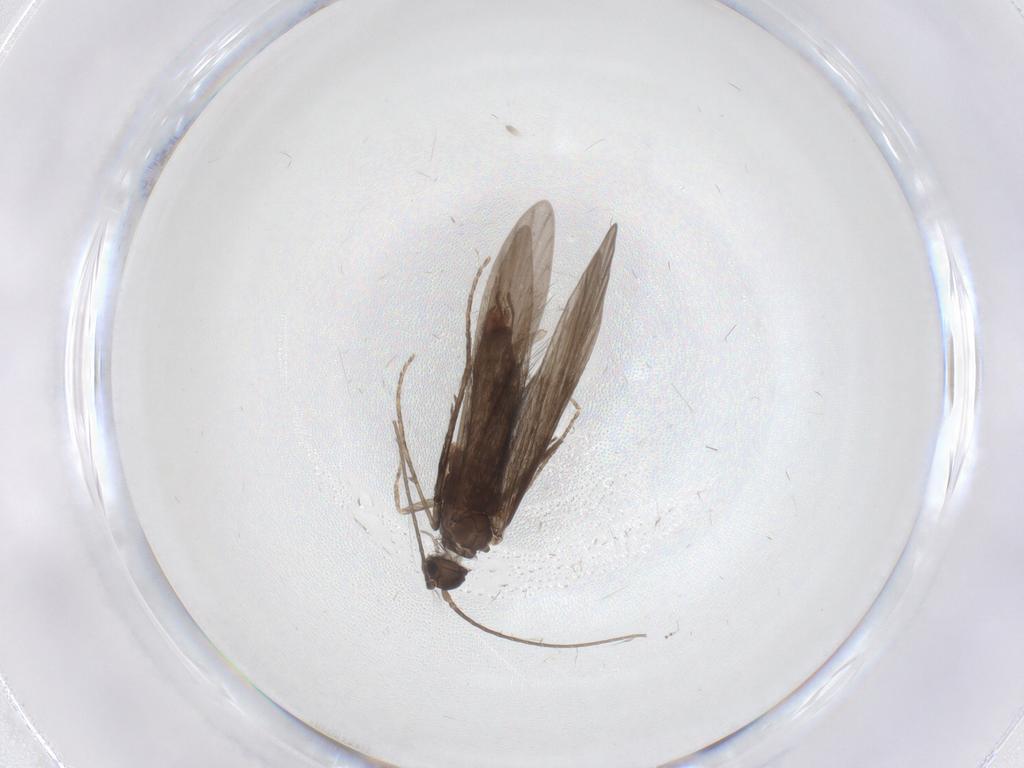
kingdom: Animalia
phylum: Arthropoda
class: Insecta
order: Trichoptera
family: Xiphocentronidae
